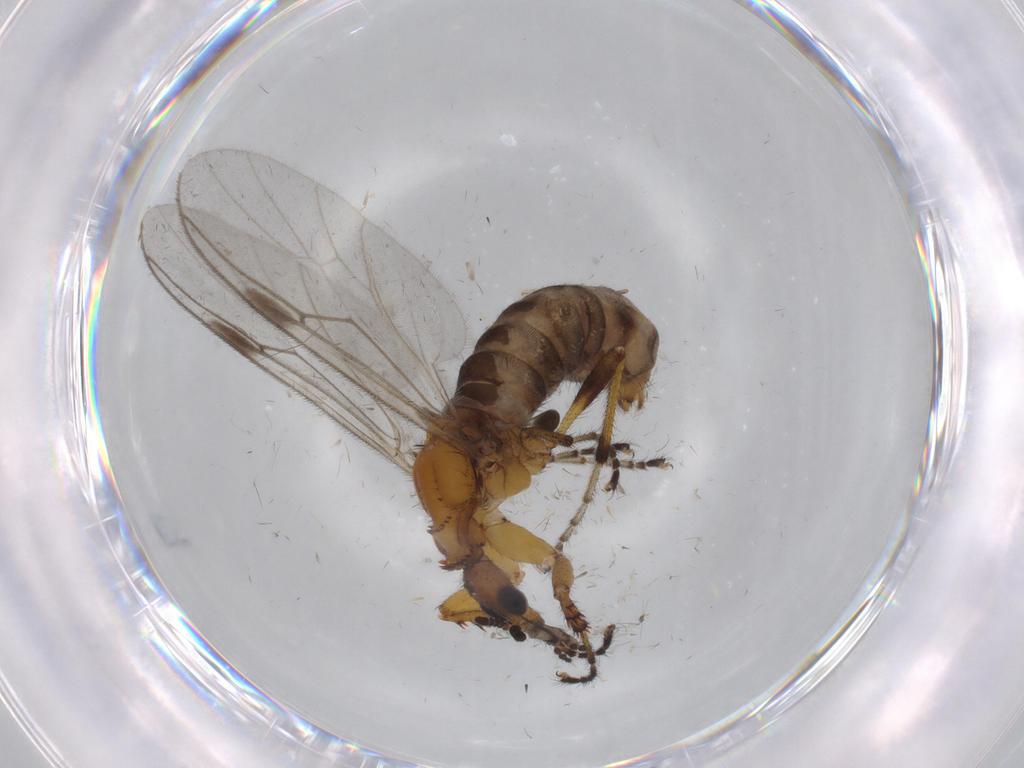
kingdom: Animalia
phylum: Arthropoda
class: Insecta
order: Diptera
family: Bibionidae
